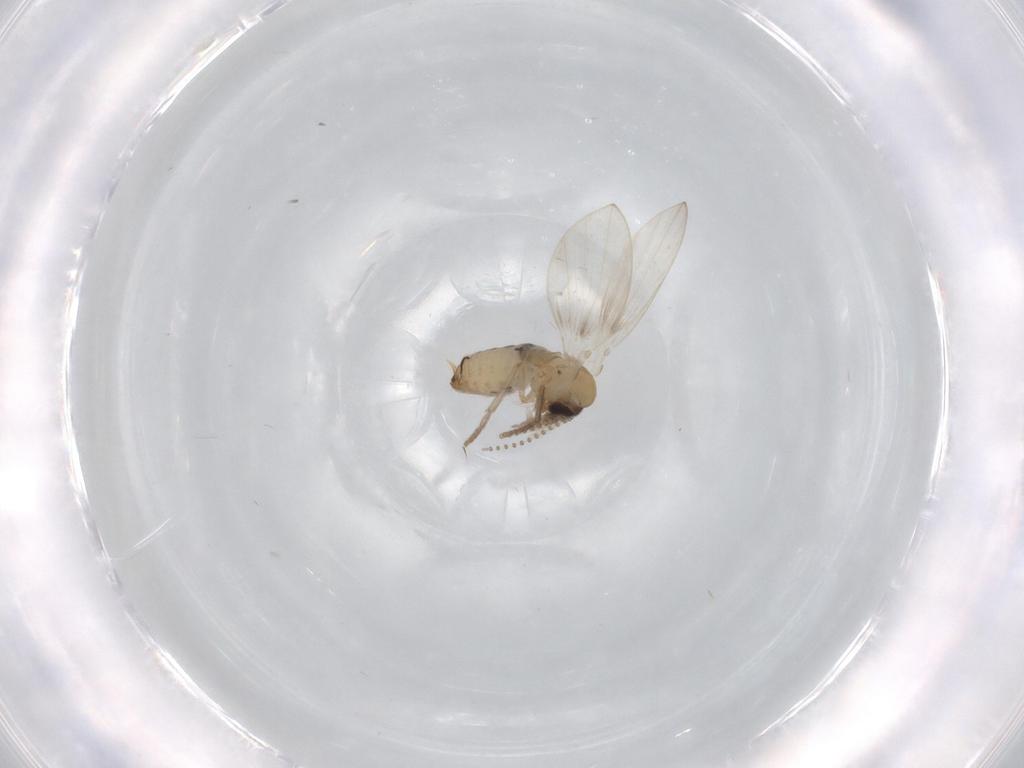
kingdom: Animalia
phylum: Arthropoda
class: Insecta
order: Diptera
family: Psychodidae
